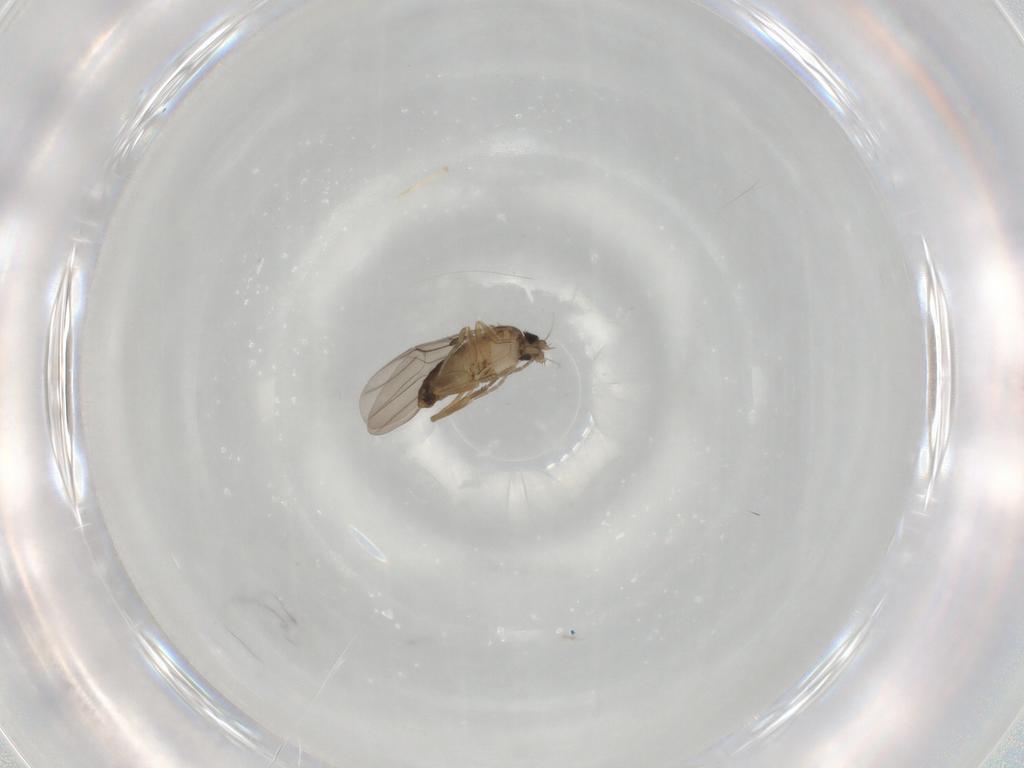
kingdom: Animalia
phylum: Arthropoda
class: Insecta
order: Diptera
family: Phoridae
